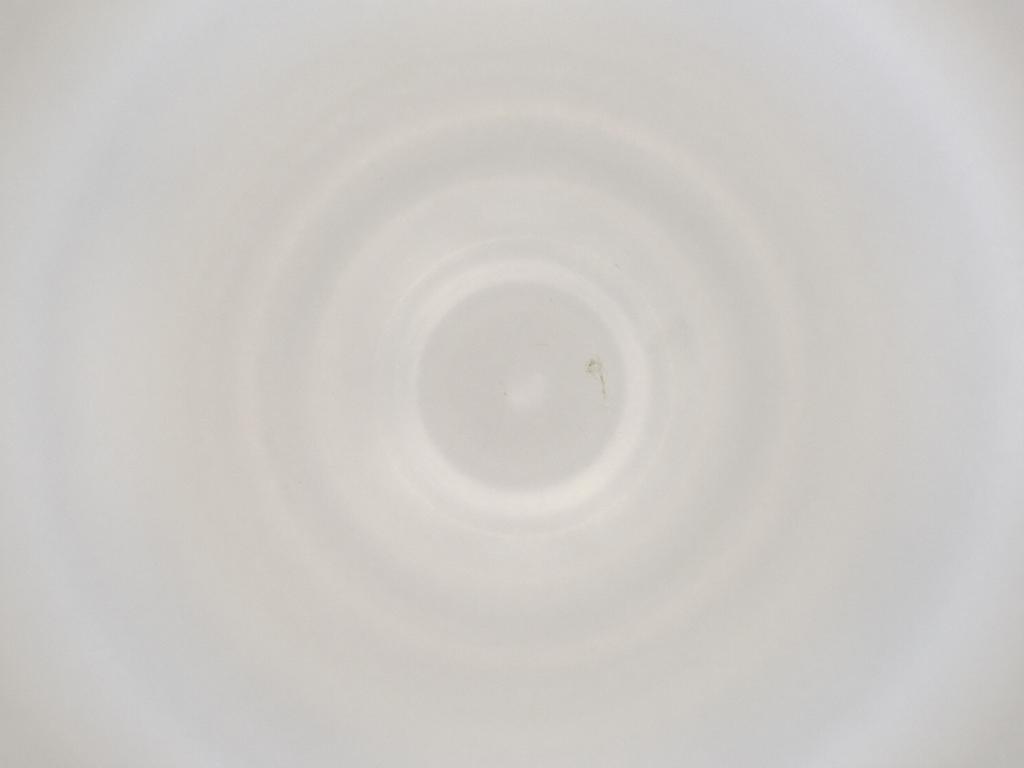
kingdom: Animalia
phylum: Arthropoda
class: Insecta
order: Diptera
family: Cecidomyiidae
